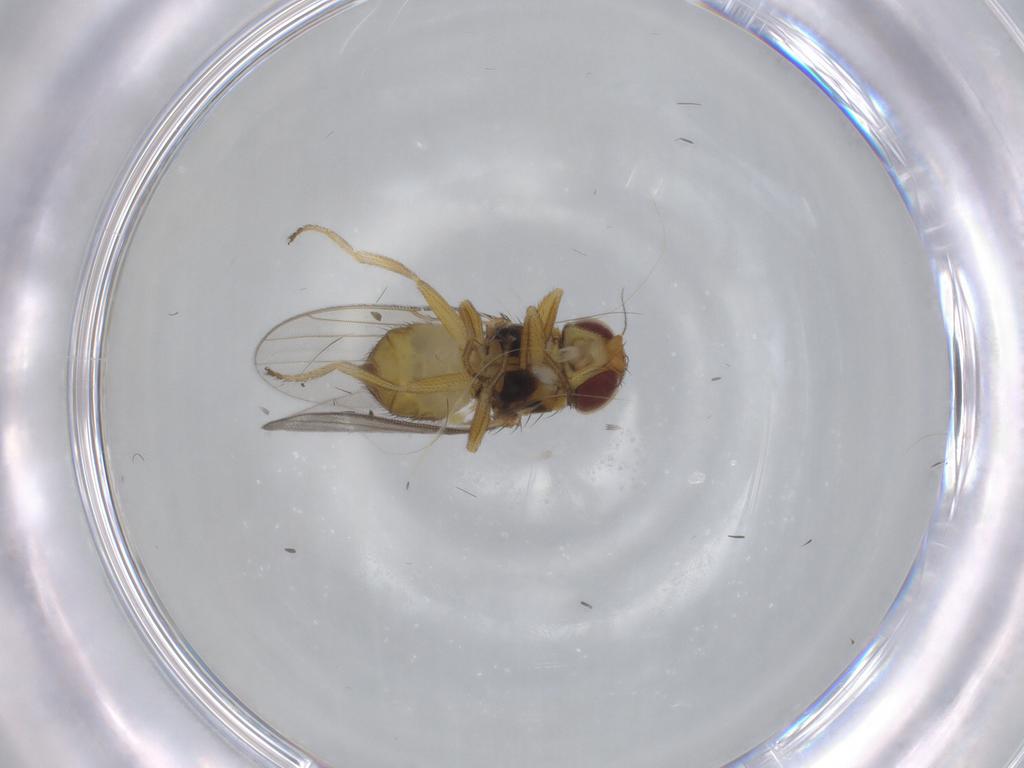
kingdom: Animalia
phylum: Arthropoda
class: Insecta
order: Diptera
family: Chloropidae
